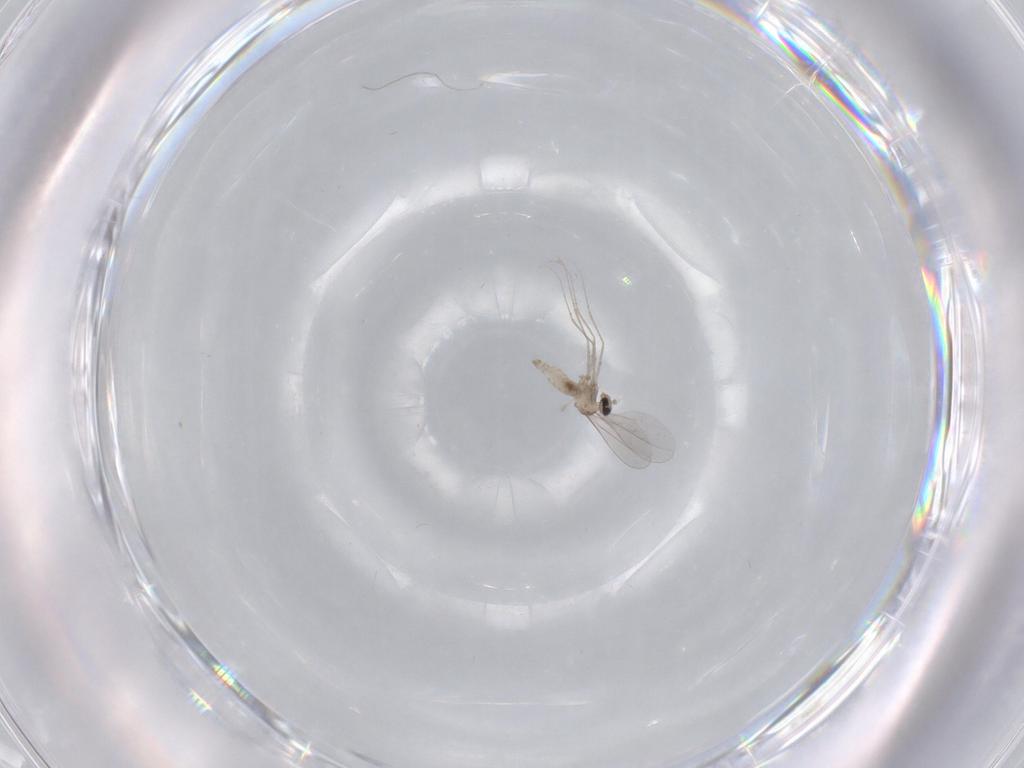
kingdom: Animalia
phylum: Arthropoda
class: Insecta
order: Diptera
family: Cecidomyiidae
